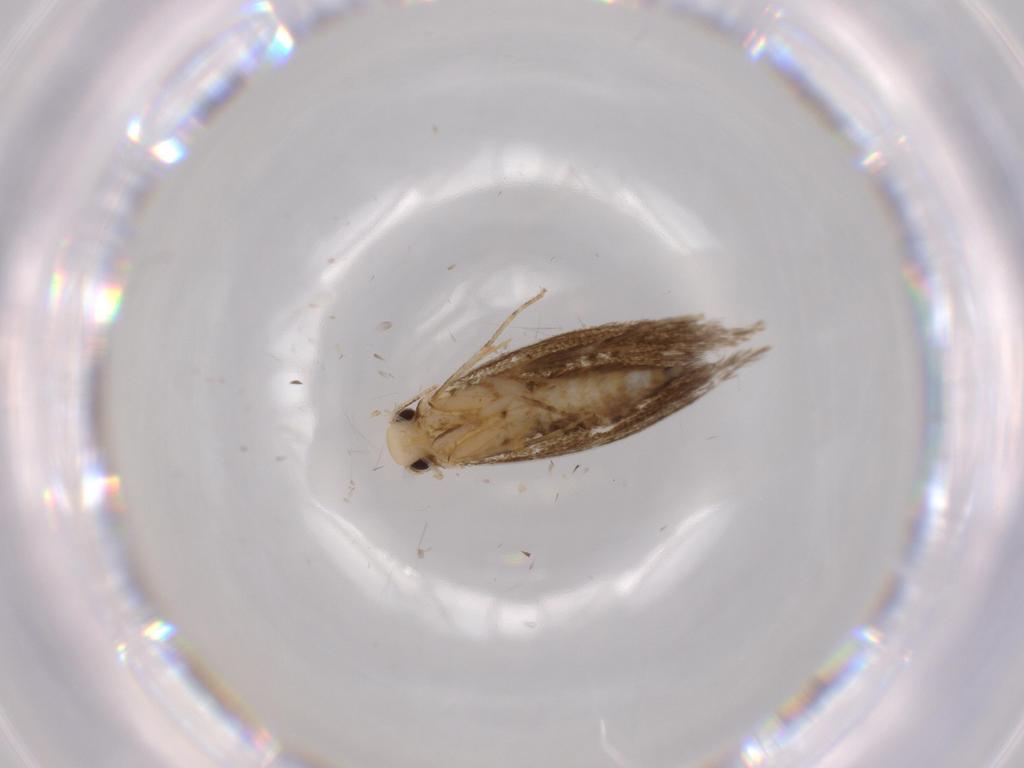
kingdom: Animalia
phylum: Arthropoda
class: Insecta
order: Lepidoptera
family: Tineidae
